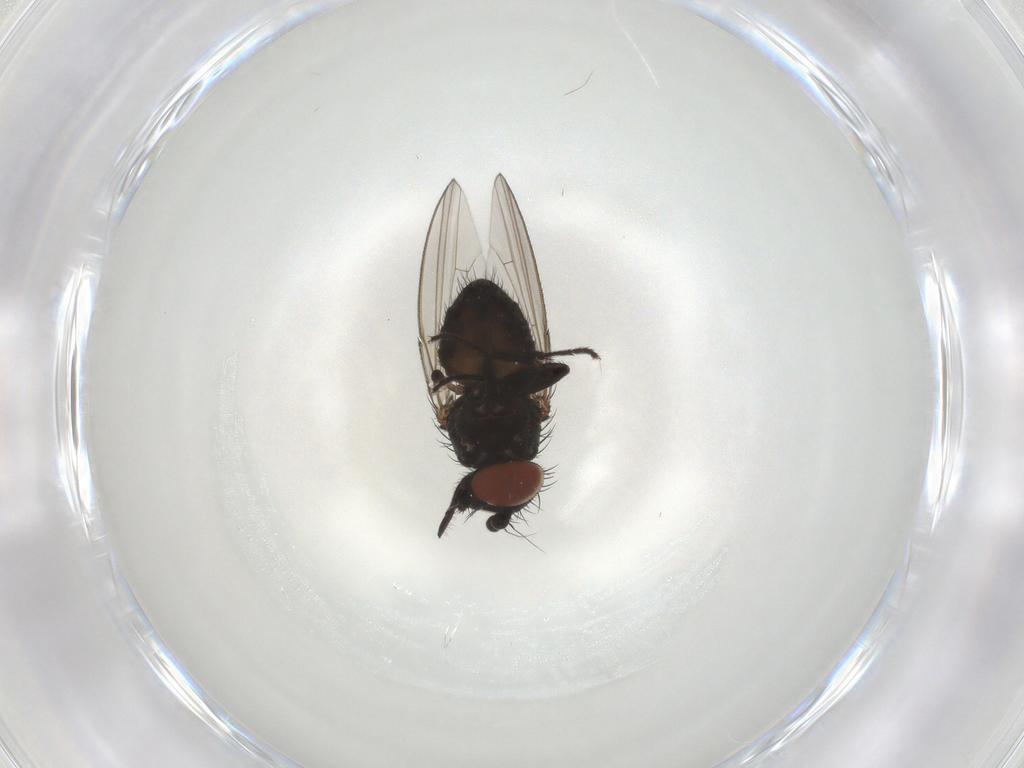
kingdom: Animalia
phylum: Arthropoda
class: Insecta
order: Diptera
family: Milichiidae
